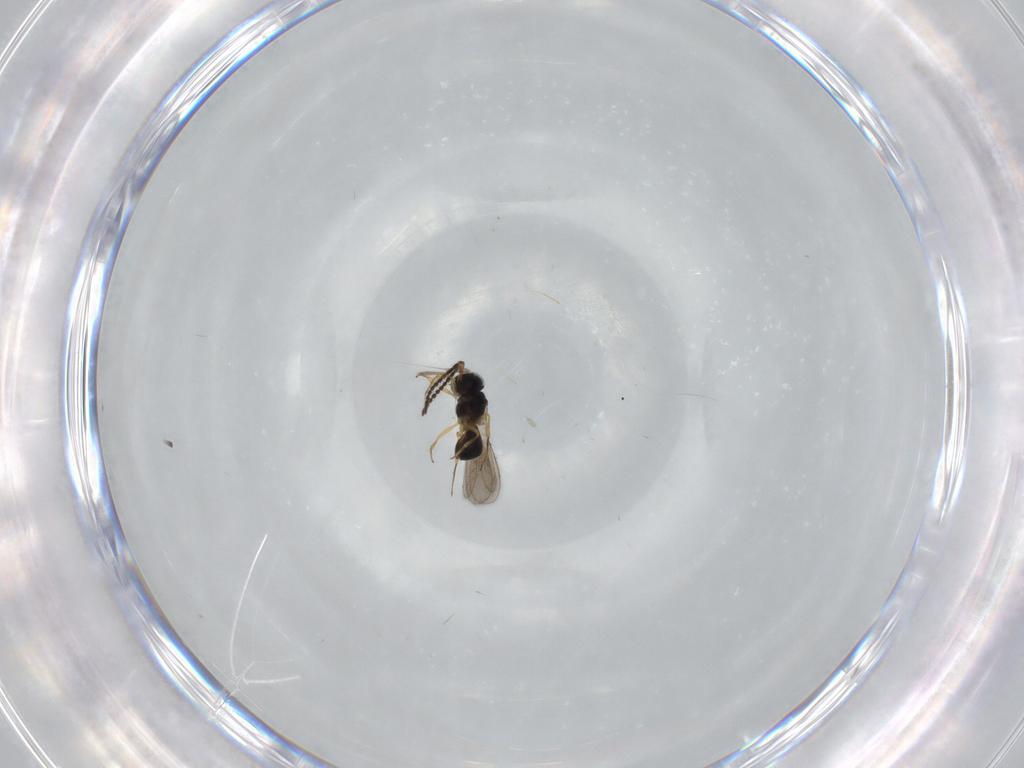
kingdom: Animalia
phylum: Arthropoda
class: Insecta
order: Hymenoptera
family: Scelionidae
